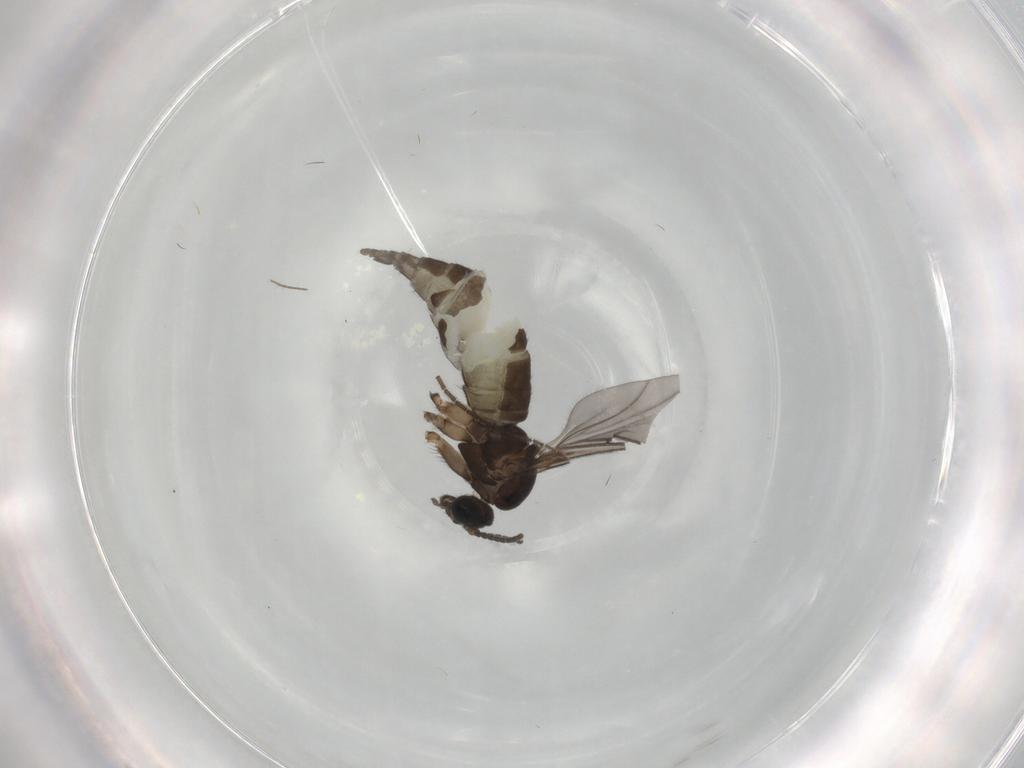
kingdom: Animalia
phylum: Arthropoda
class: Insecta
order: Diptera
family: Sciaridae
